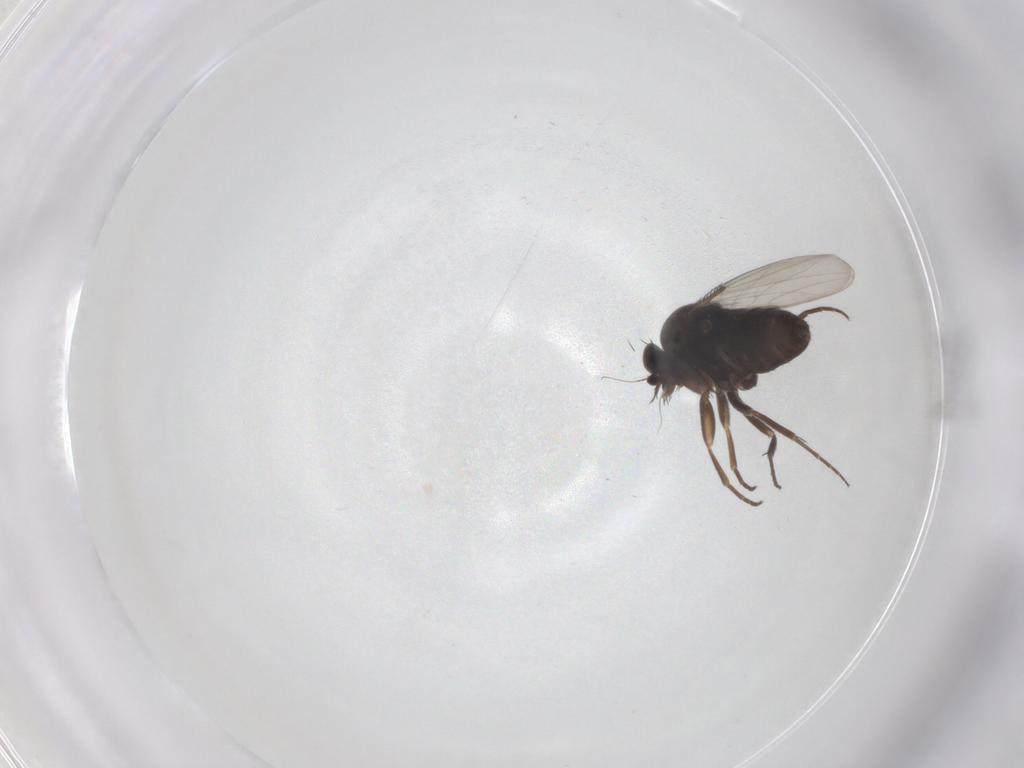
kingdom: Animalia
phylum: Arthropoda
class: Insecta
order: Diptera
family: Phoridae
